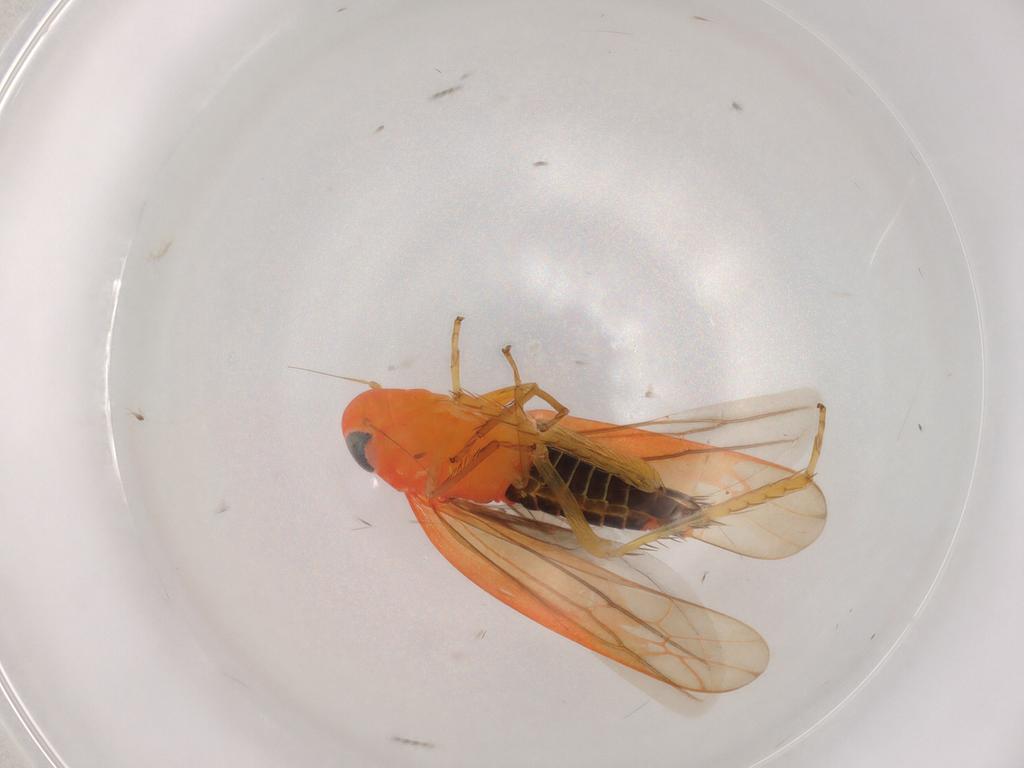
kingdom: Animalia
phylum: Arthropoda
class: Insecta
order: Hemiptera
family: Cicadellidae
